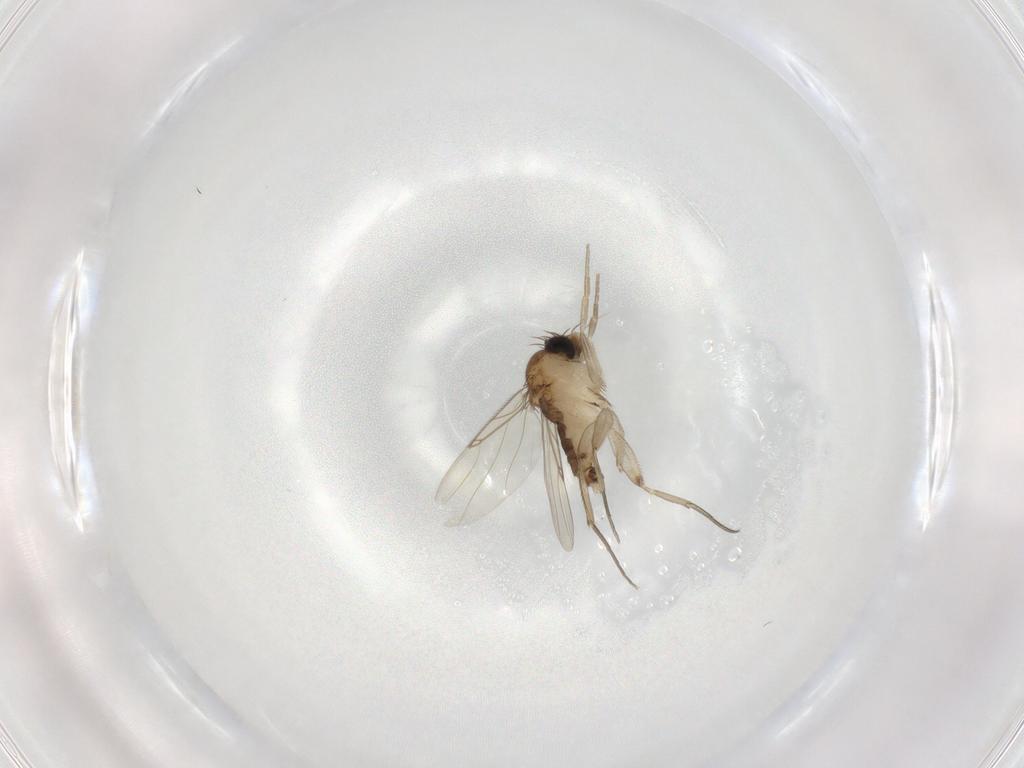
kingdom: Animalia
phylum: Arthropoda
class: Insecta
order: Diptera
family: Phoridae
